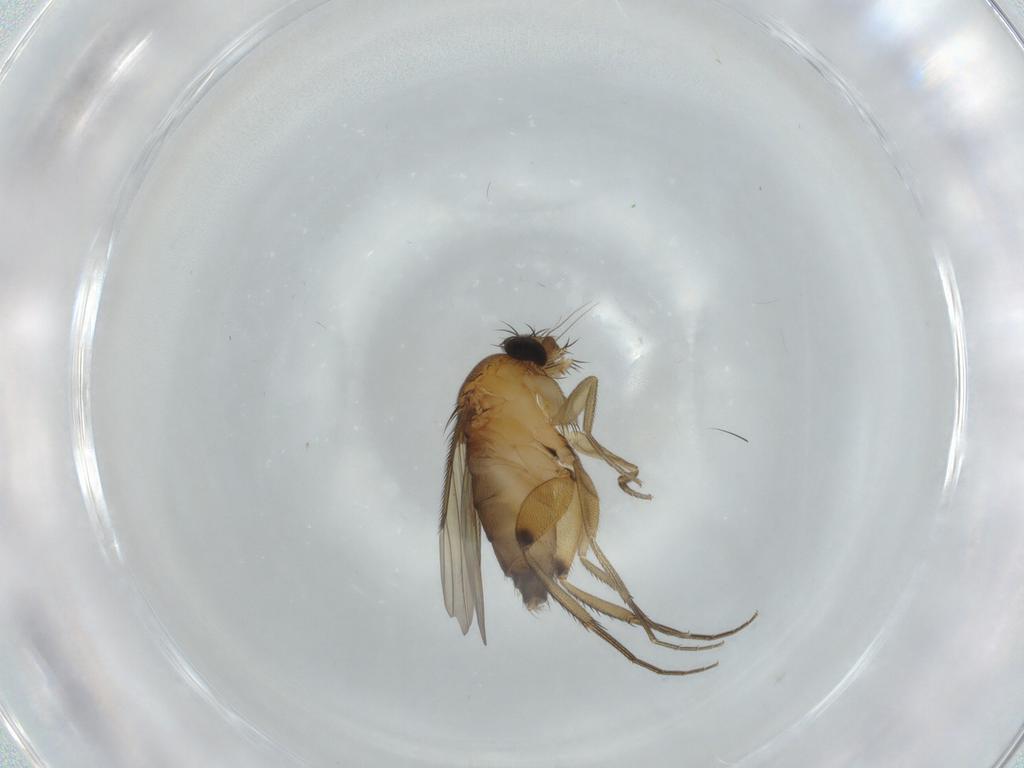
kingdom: Animalia
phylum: Arthropoda
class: Insecta
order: Diptera
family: Phoridae
